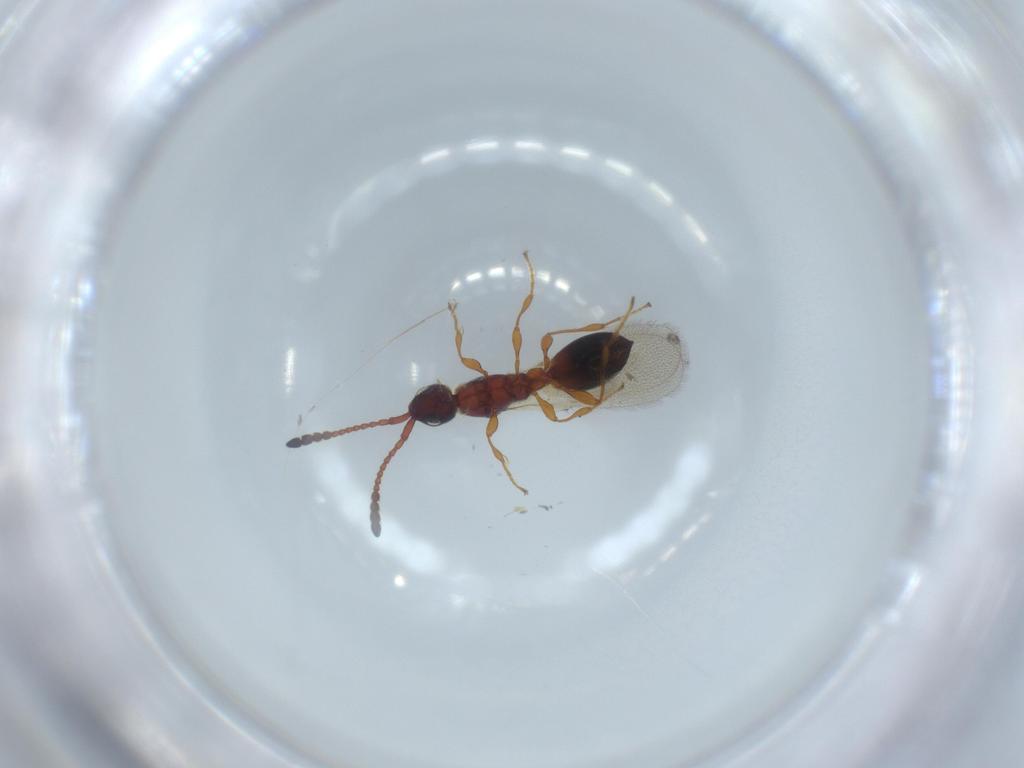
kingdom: Animalia
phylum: Arthropoda
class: Insecta
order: Hymenoptera
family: Diapriidae
